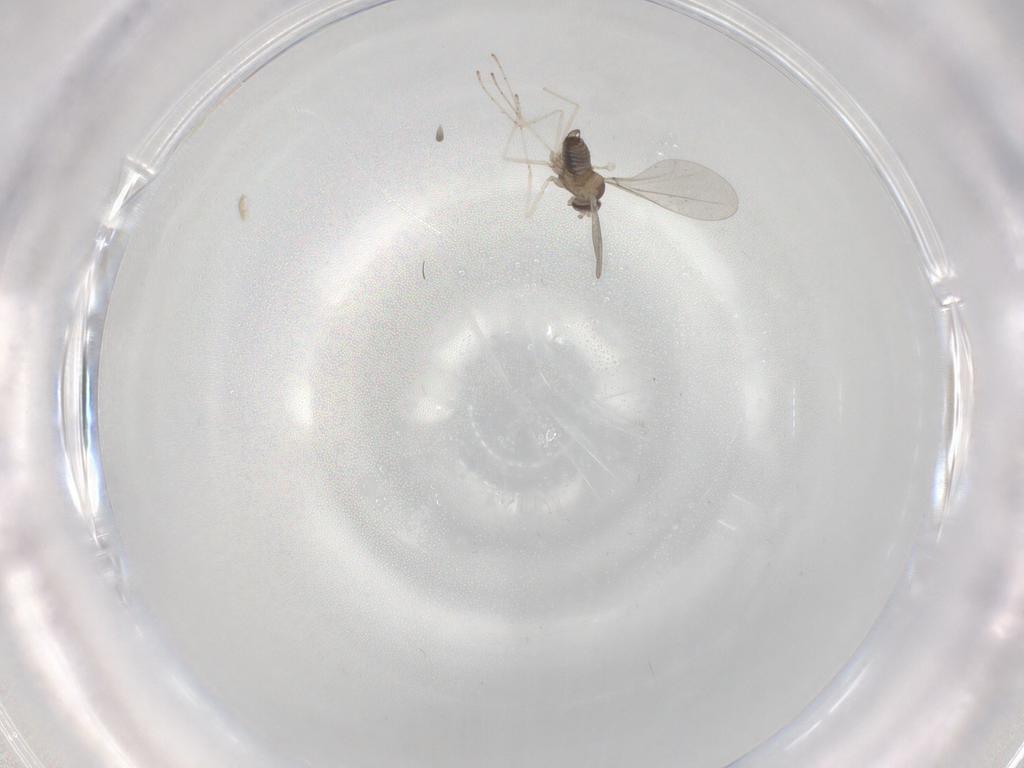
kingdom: Animalia
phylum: Arthropoda
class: Insecta
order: Diptera
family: Cecidomyiidae
